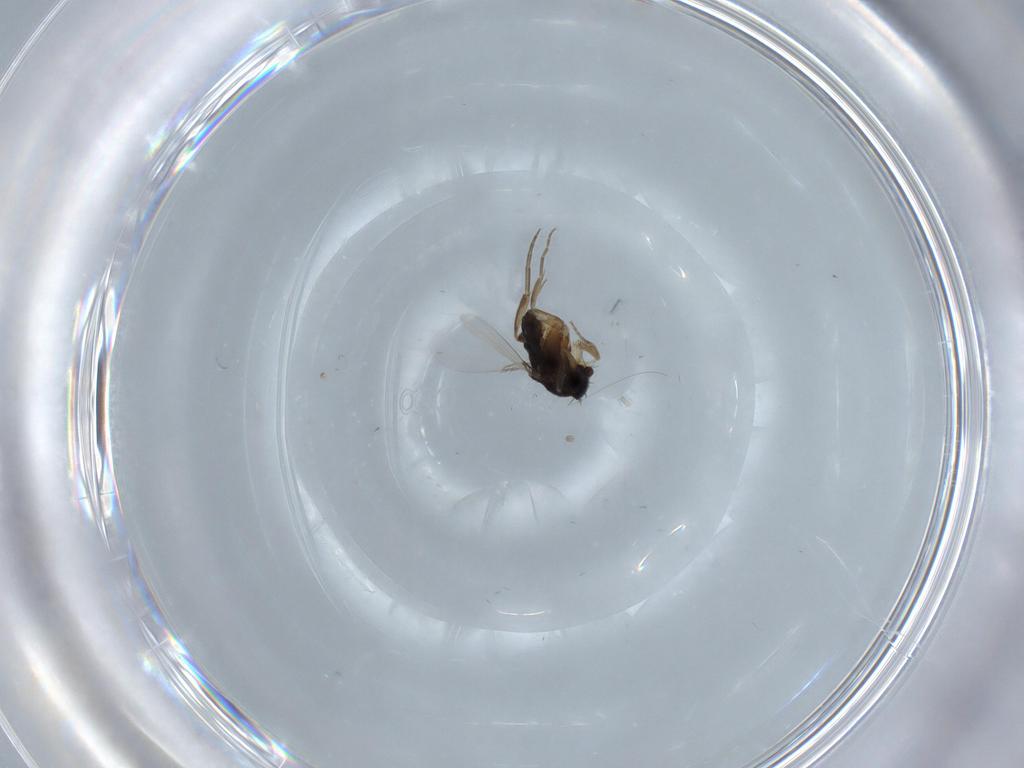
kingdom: Animalia
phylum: Arthropoda
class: Insecta
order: Diptera
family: Phoridae
